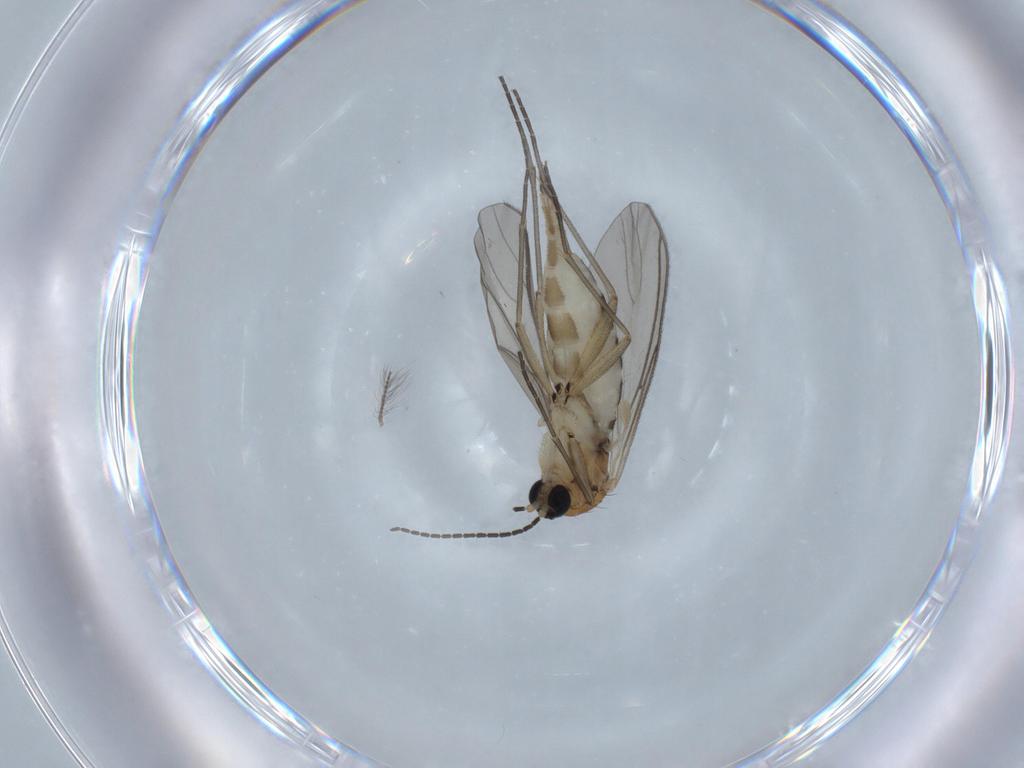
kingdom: Animalia
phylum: Arthropoda
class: Insecta
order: Diptera
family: Sciaridae
